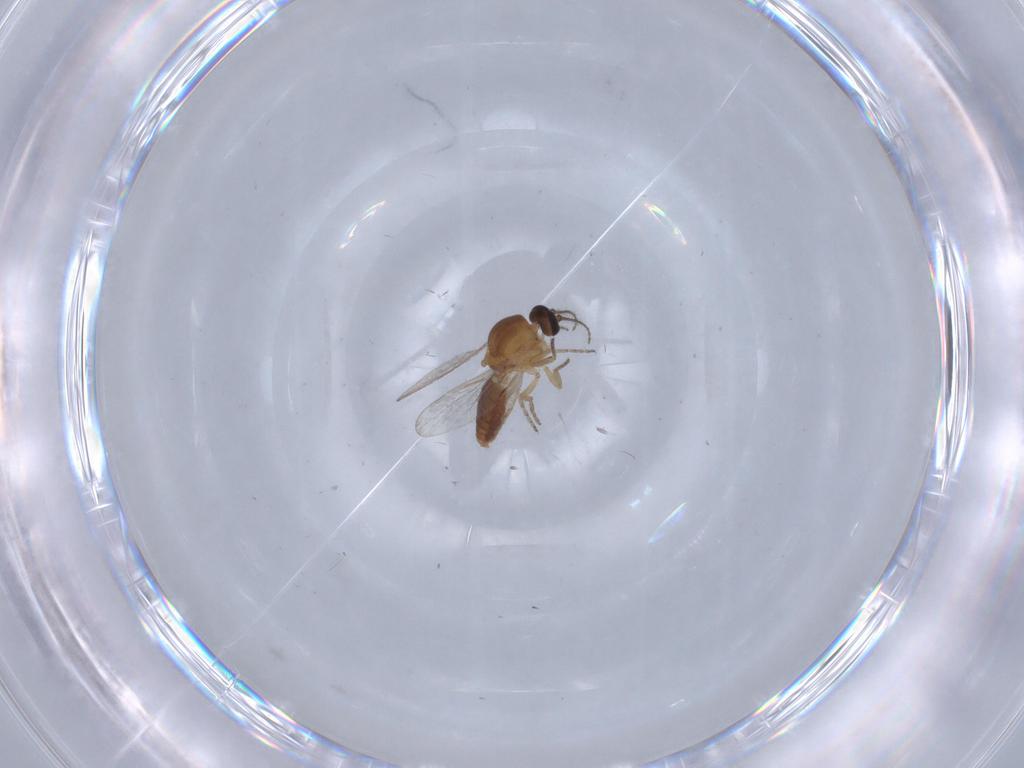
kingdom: Animalia
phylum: Arthropoda
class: Insecta
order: Diptera
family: Ceratopogonidae
